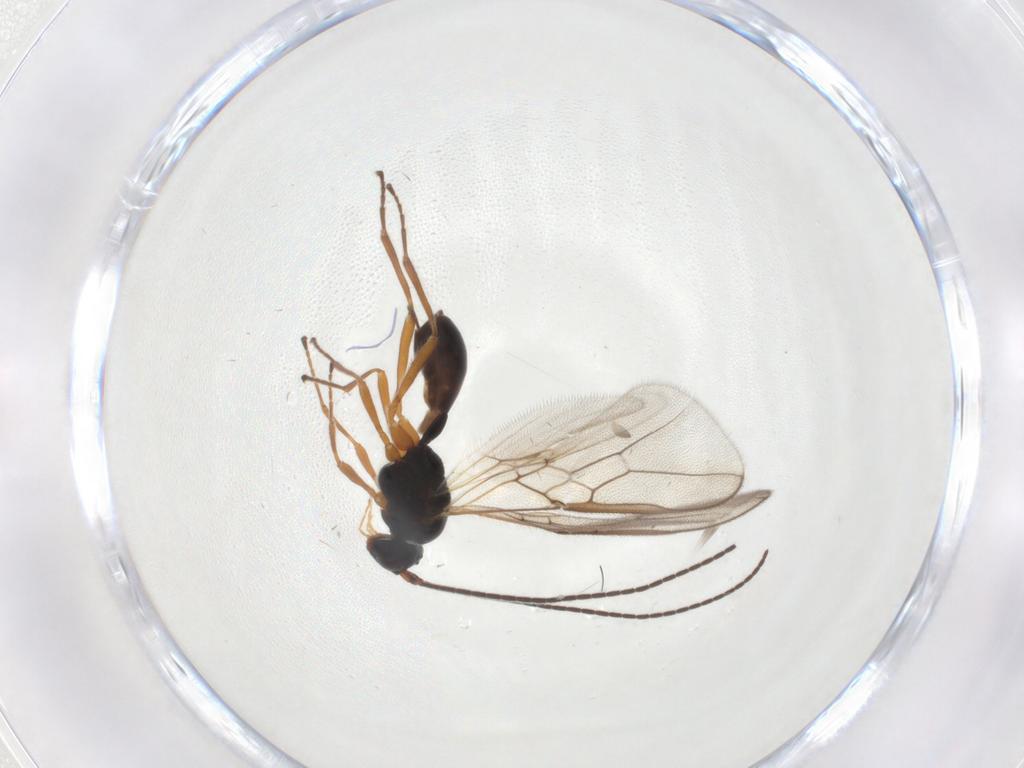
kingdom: Animalia
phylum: Arthropoda
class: Insecta
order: Hymenoptera
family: Braconidae
